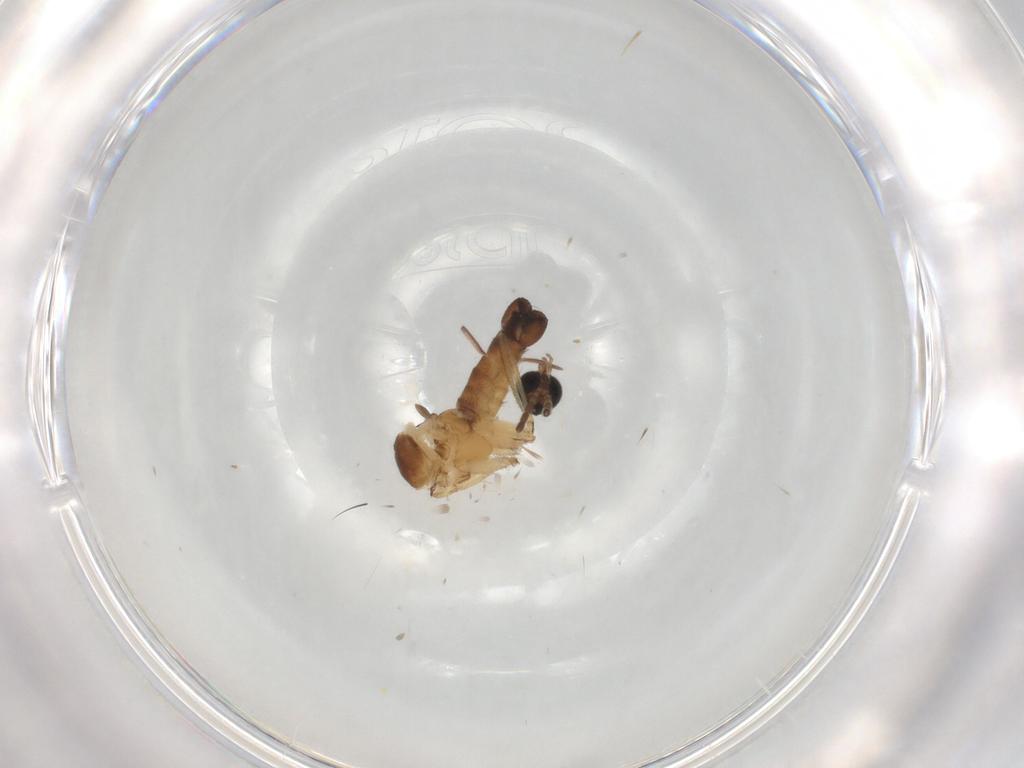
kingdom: Animalia
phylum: Arthropoda
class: Insecta
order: Diptera
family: Sciaridae
